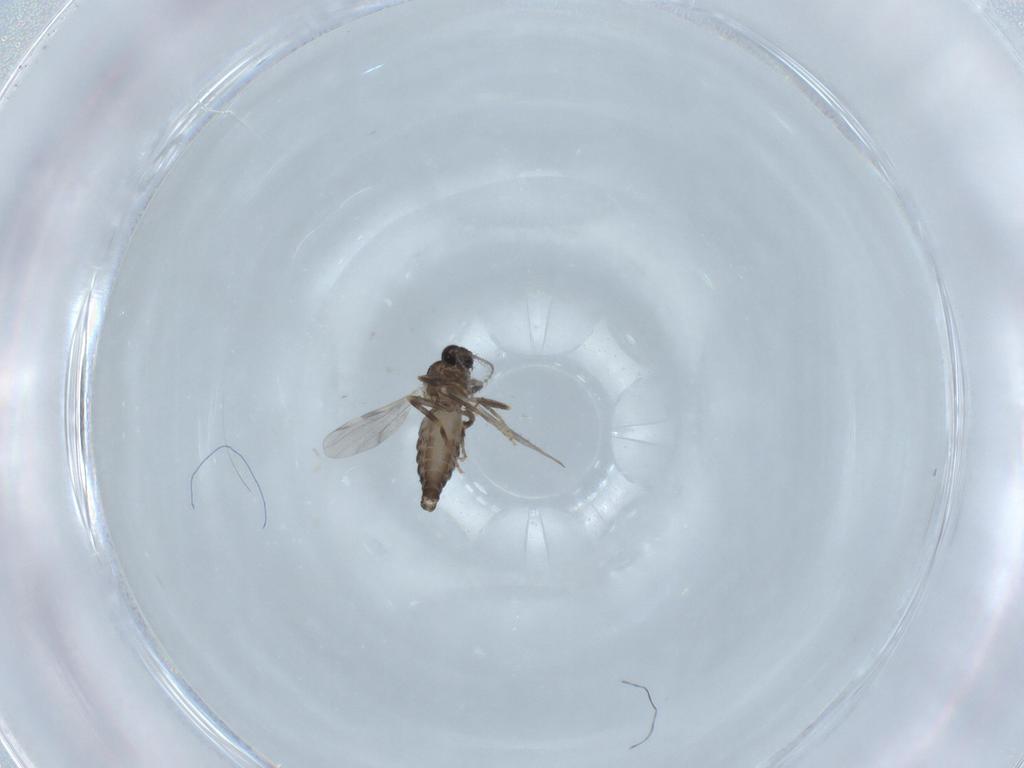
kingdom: Animalia
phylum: Arthropoda
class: Insecta
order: Diptera
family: Ceratopogonidae
